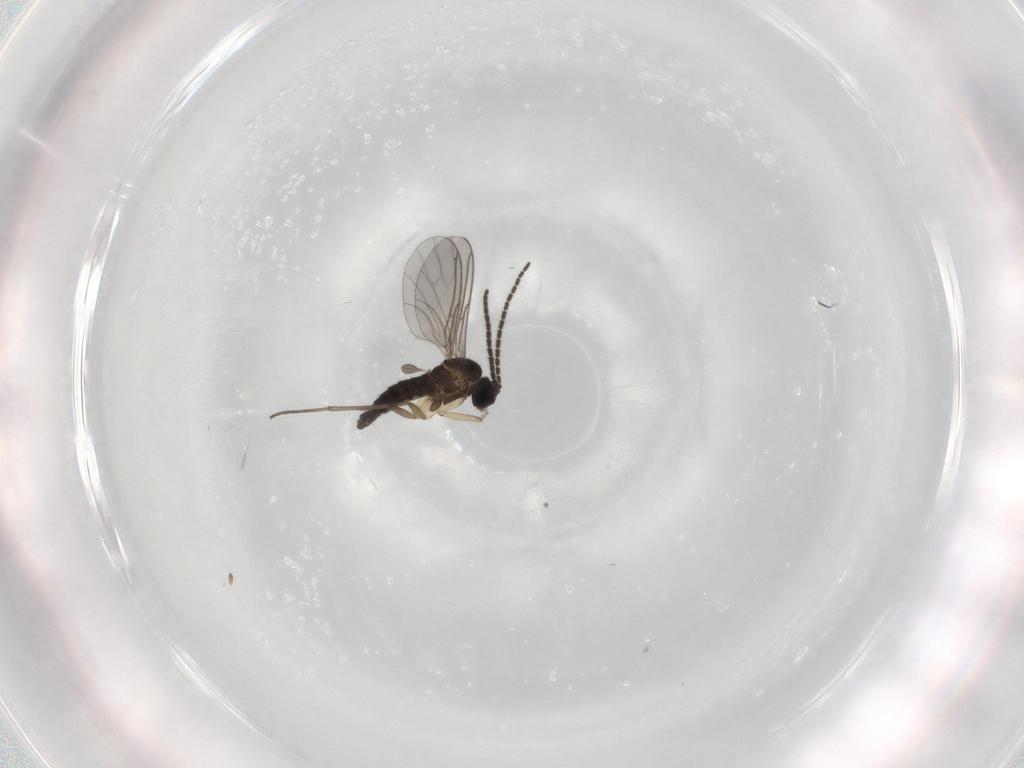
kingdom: Animalia
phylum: Arthropoda
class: Insecta
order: Diptera
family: Sciaridae
